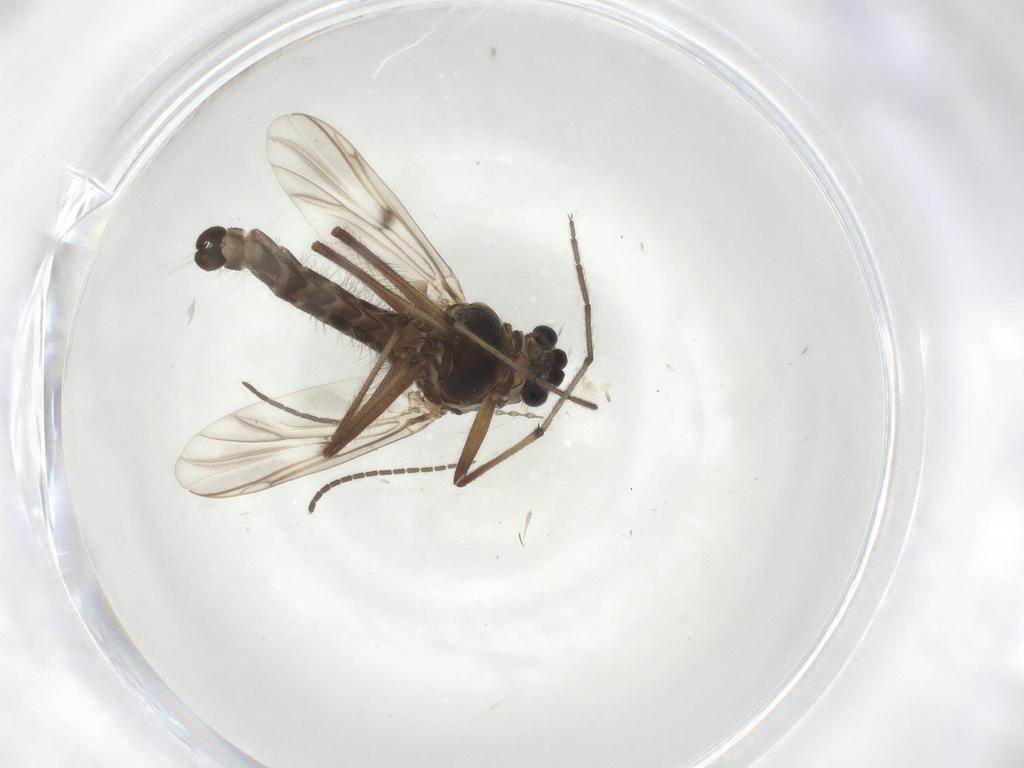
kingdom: Animalia
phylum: Arthropoda
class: Insecta
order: Diptera
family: Chironomidae
